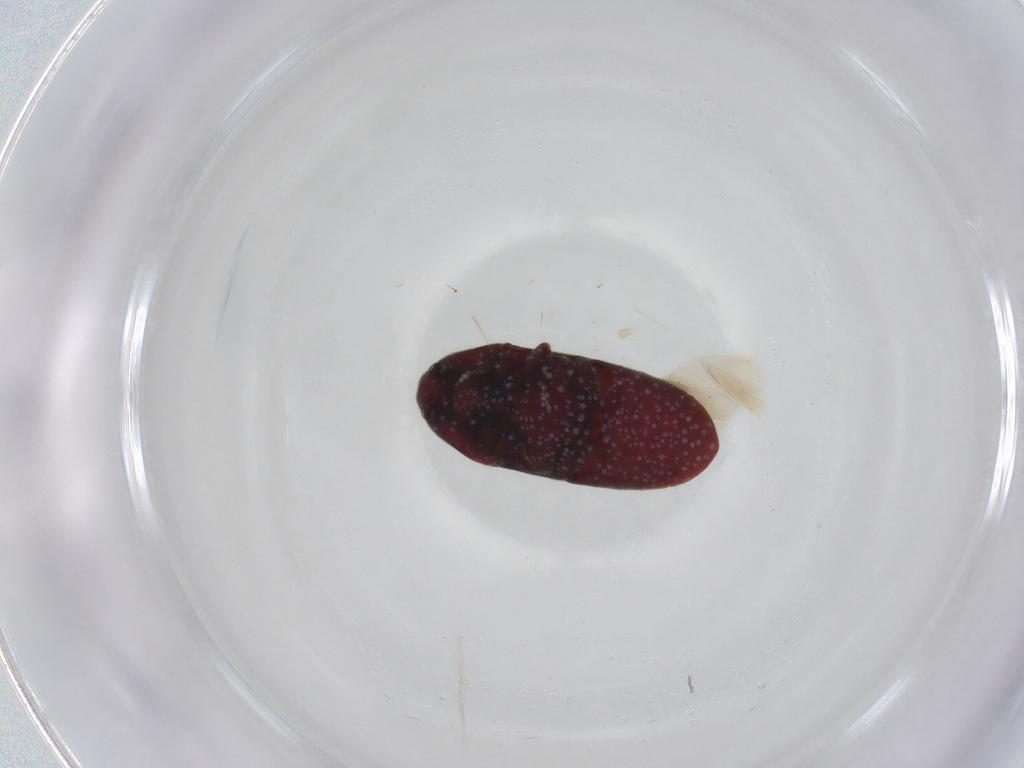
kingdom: Animalia
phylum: Arthropoda
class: Insecta
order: Coleoptera
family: Throscidae
